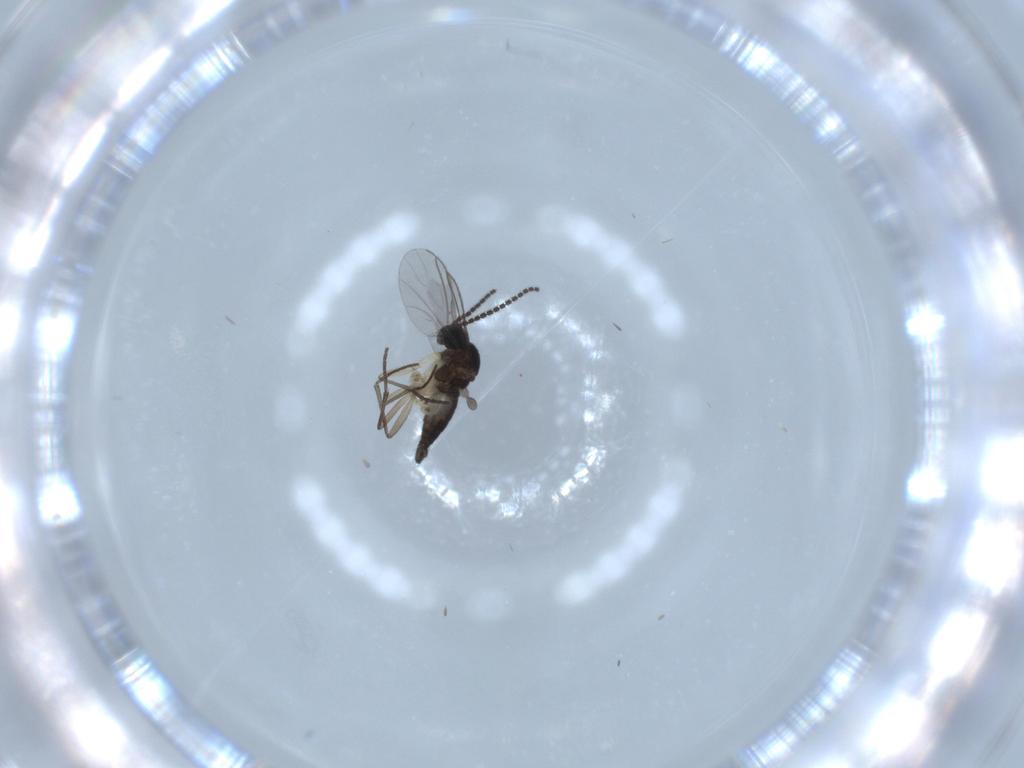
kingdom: Animalia
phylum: Arthropoda
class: Insecta
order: Diptera
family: Sciaridae
